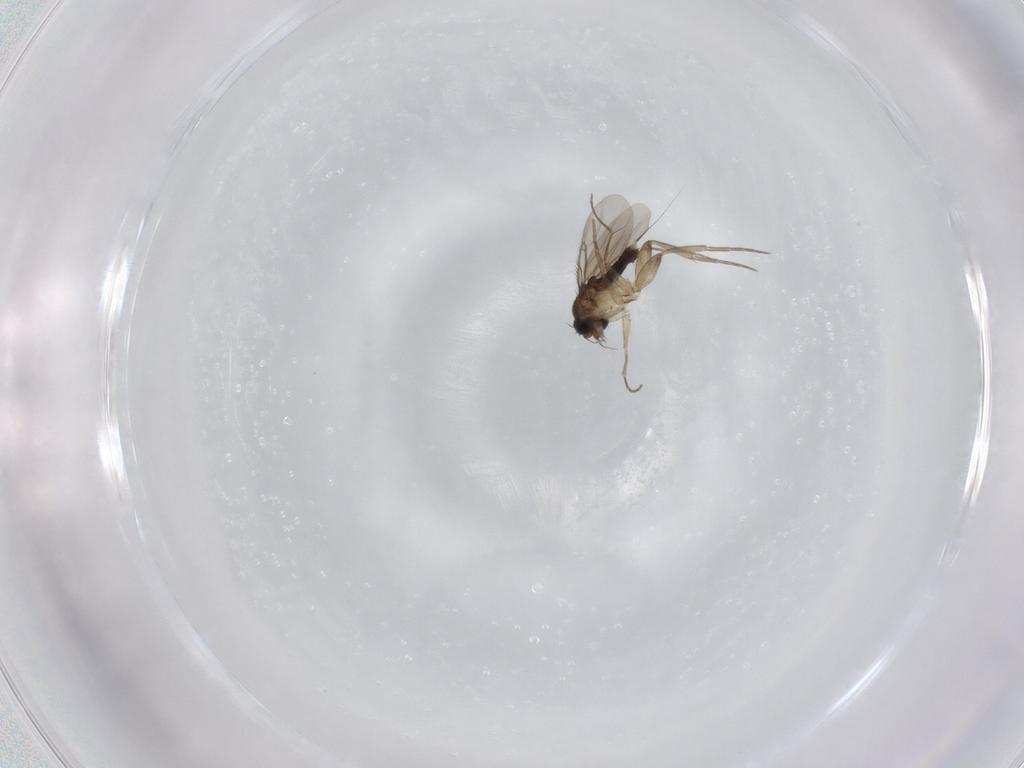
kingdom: Animalia
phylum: Arthropoda
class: Insecta
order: Diptera
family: Phoridae
